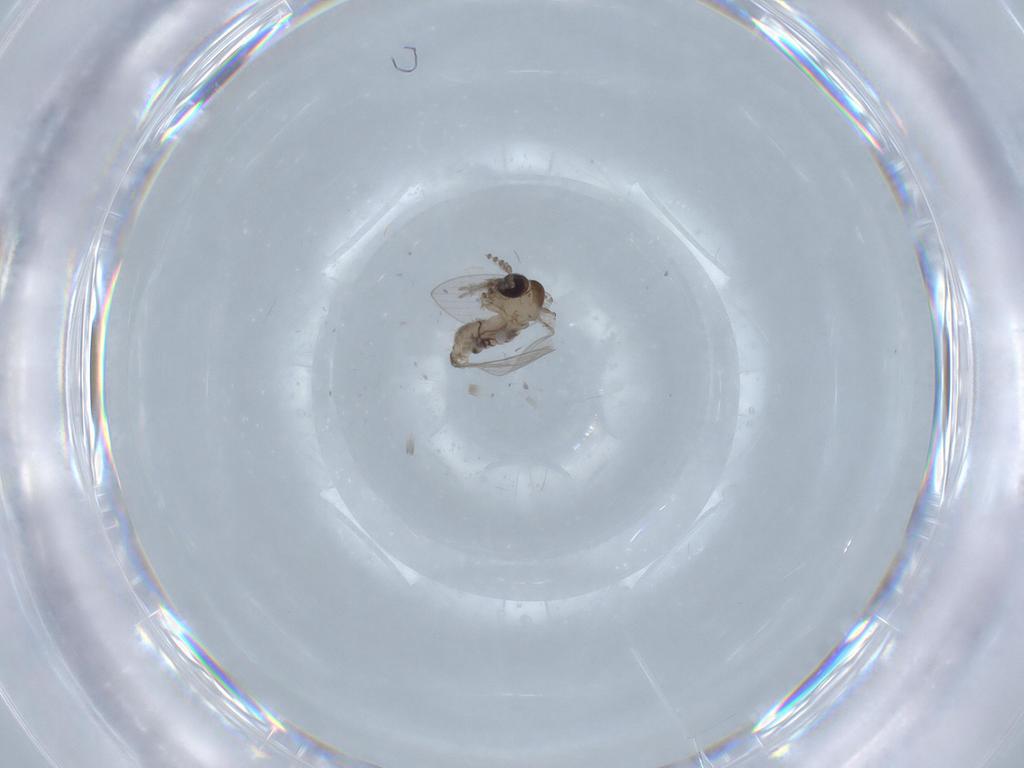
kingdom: Animalia
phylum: Arthropoda
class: Insecta
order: Diptera
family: Psychodidae
